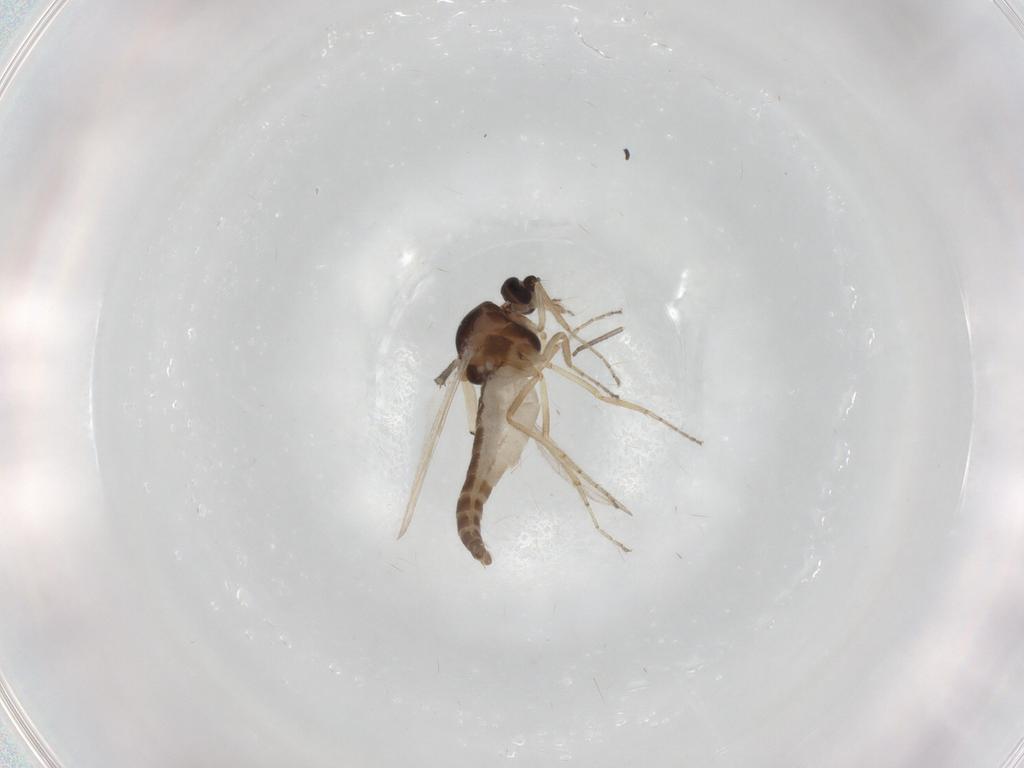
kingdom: Animalia
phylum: Arthropoda
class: Insecta
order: Diptera
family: Ceratopogonidae
